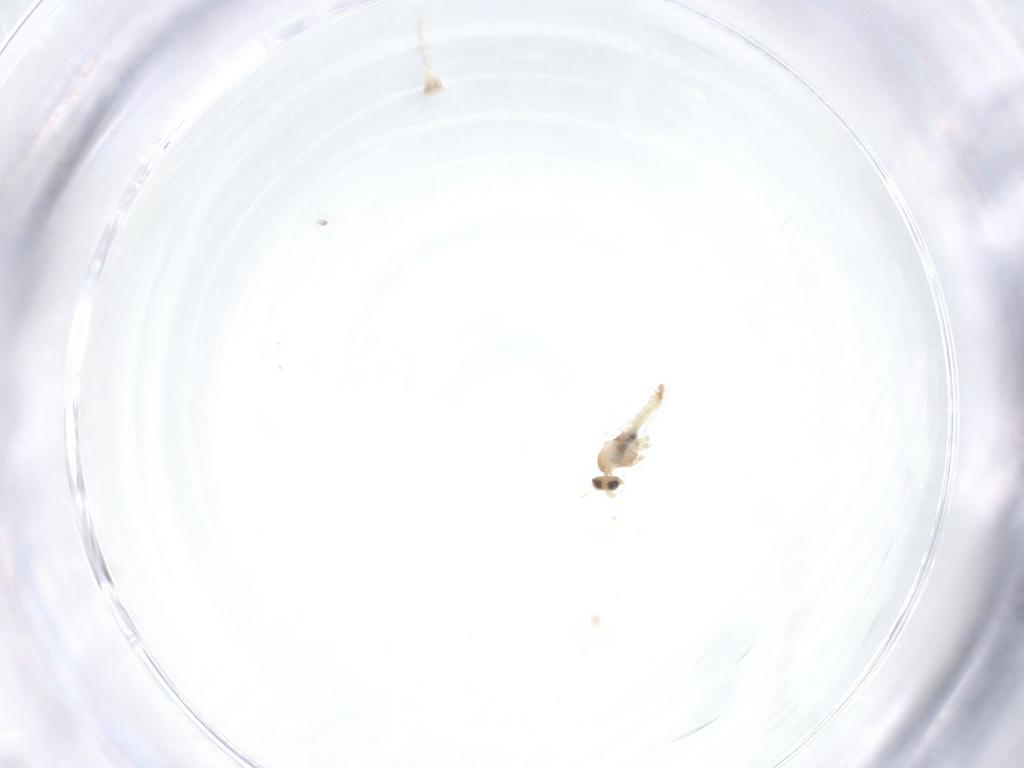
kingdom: Animalia
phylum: Arthropoda
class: Insecta
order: Diptera
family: Cecidomyiidae
